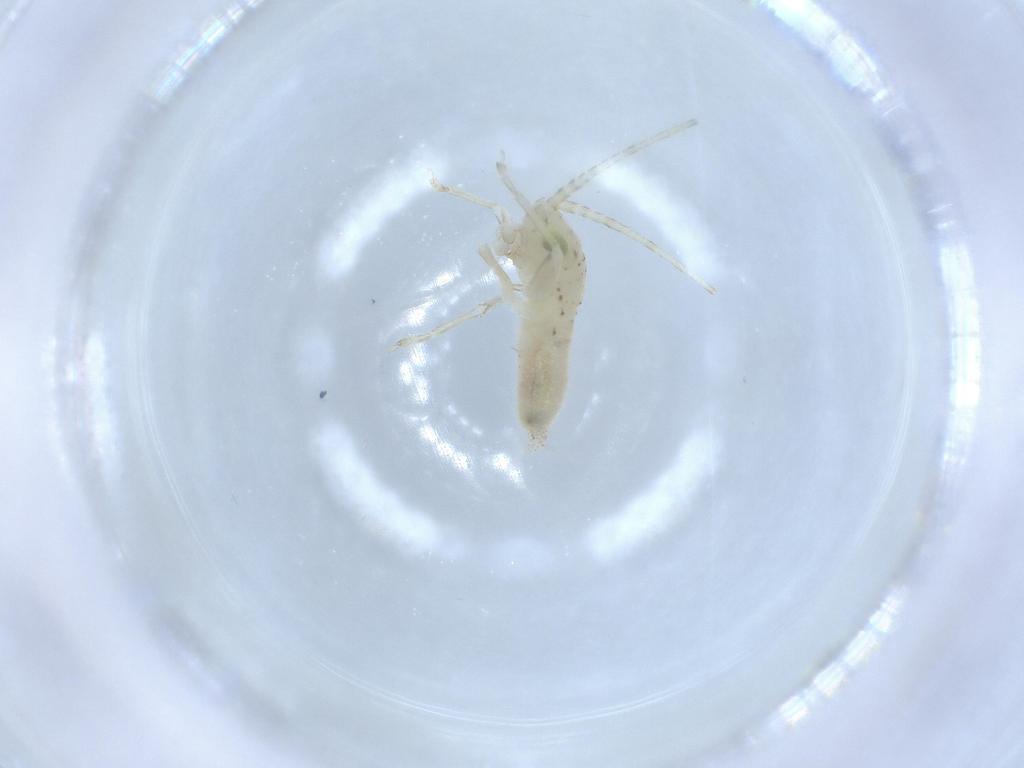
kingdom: Animalia
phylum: Arthropoda
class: Insecta
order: Orthoptera
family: Trigonidiidae
